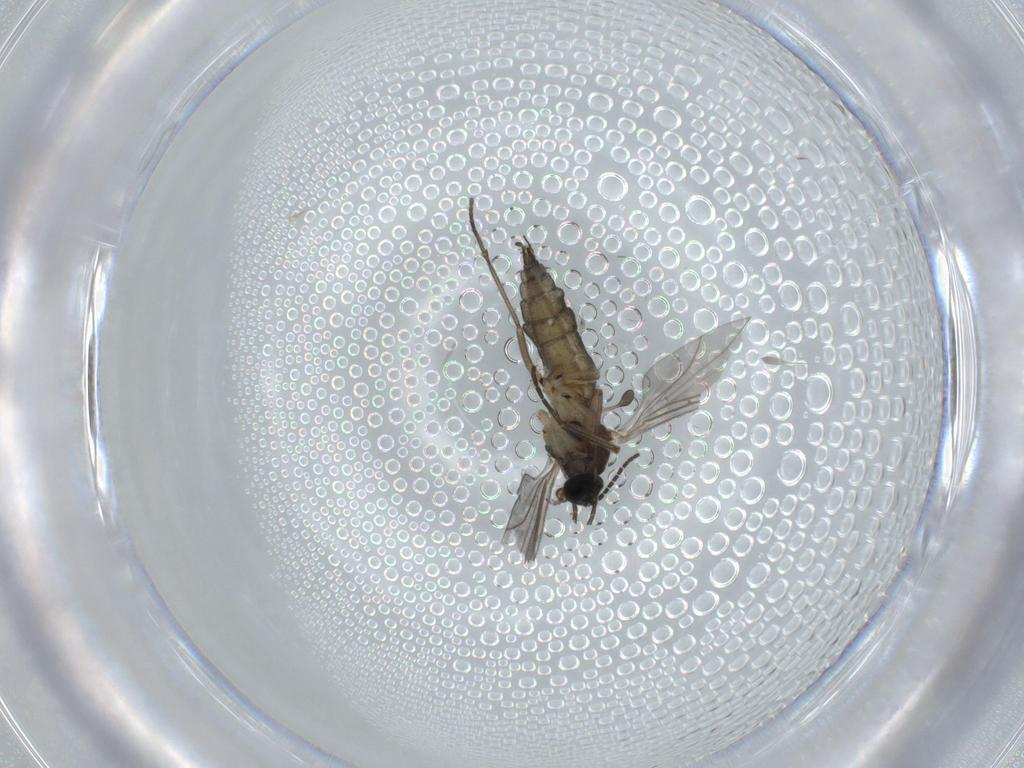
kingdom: Animalia
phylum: Arthropoda
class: Insecta
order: Diptera
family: Sciaridae
